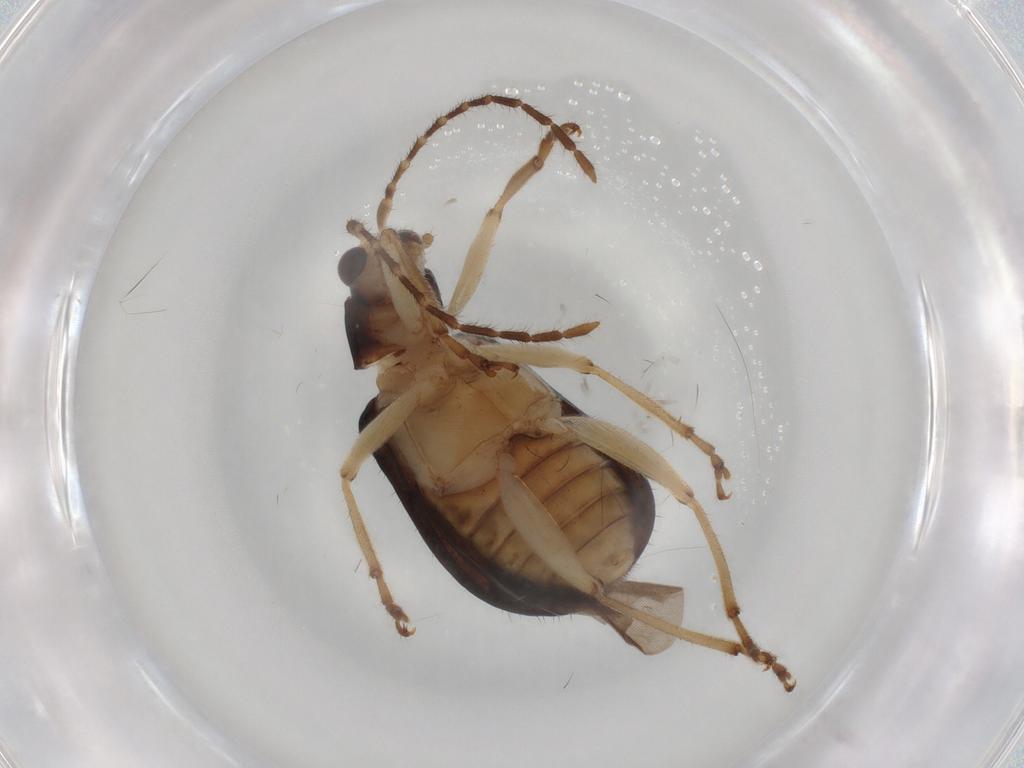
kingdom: Animalia
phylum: Arthropoda
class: Insecta
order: Coleoptera
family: Chrysomelidae
